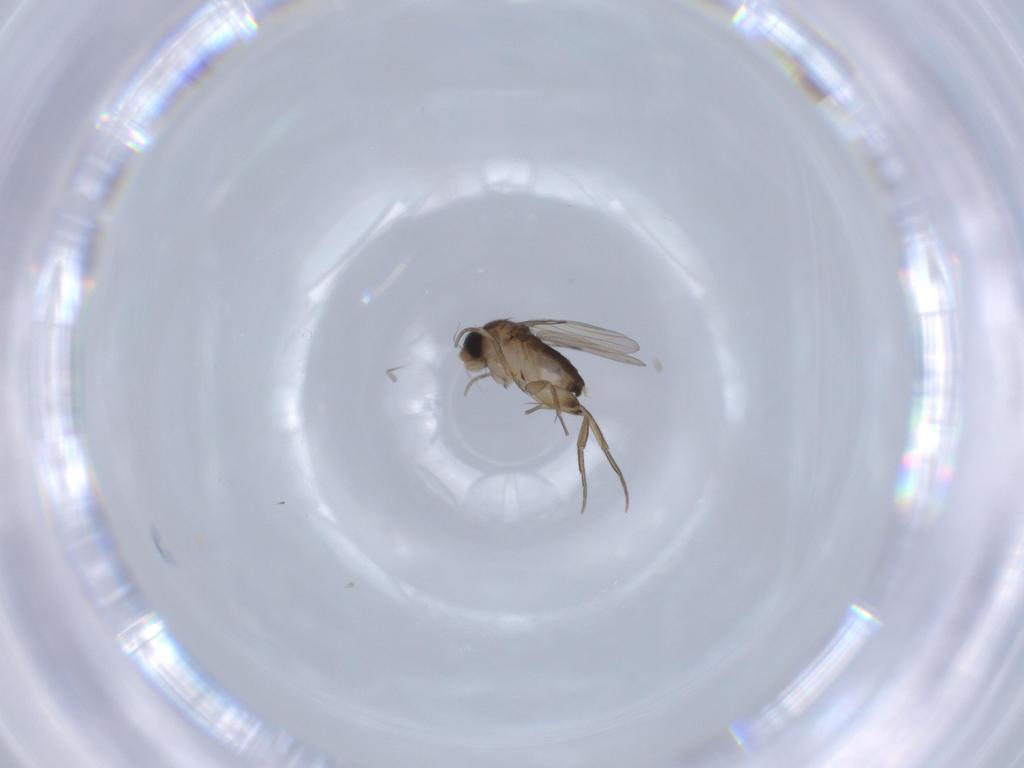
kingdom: Animalia
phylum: Arthropoda
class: Insecta
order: Diptera
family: Phoridae
